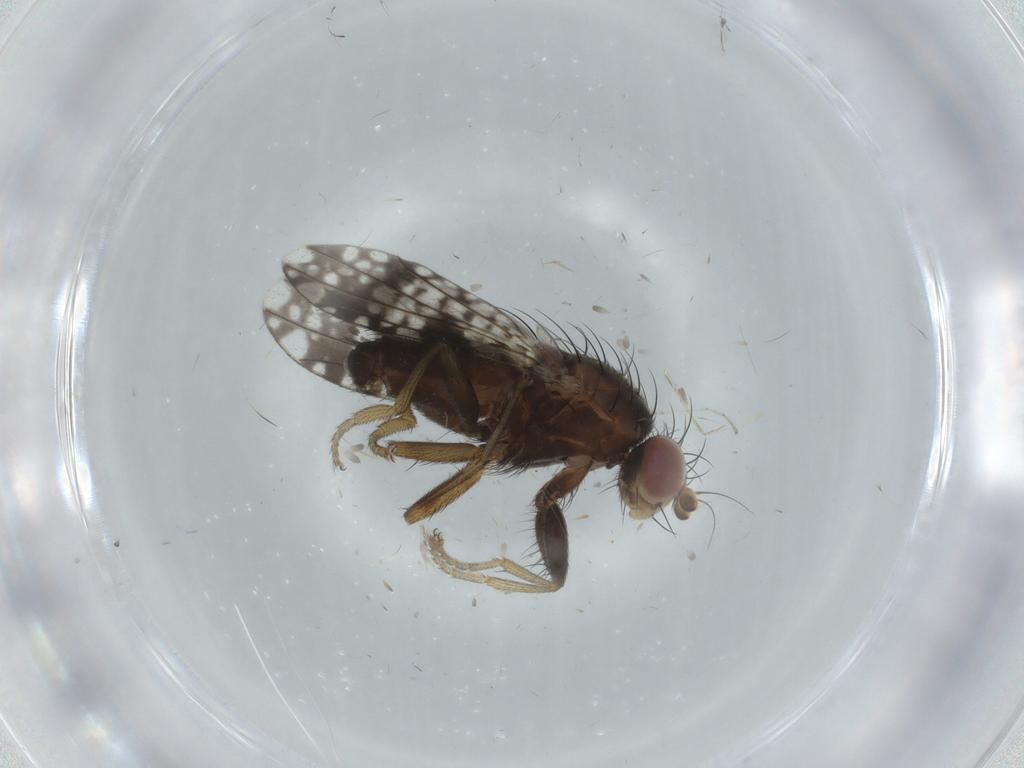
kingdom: Animalia
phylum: Arthropoda
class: Insecta
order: Diptera
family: Tephritidae
